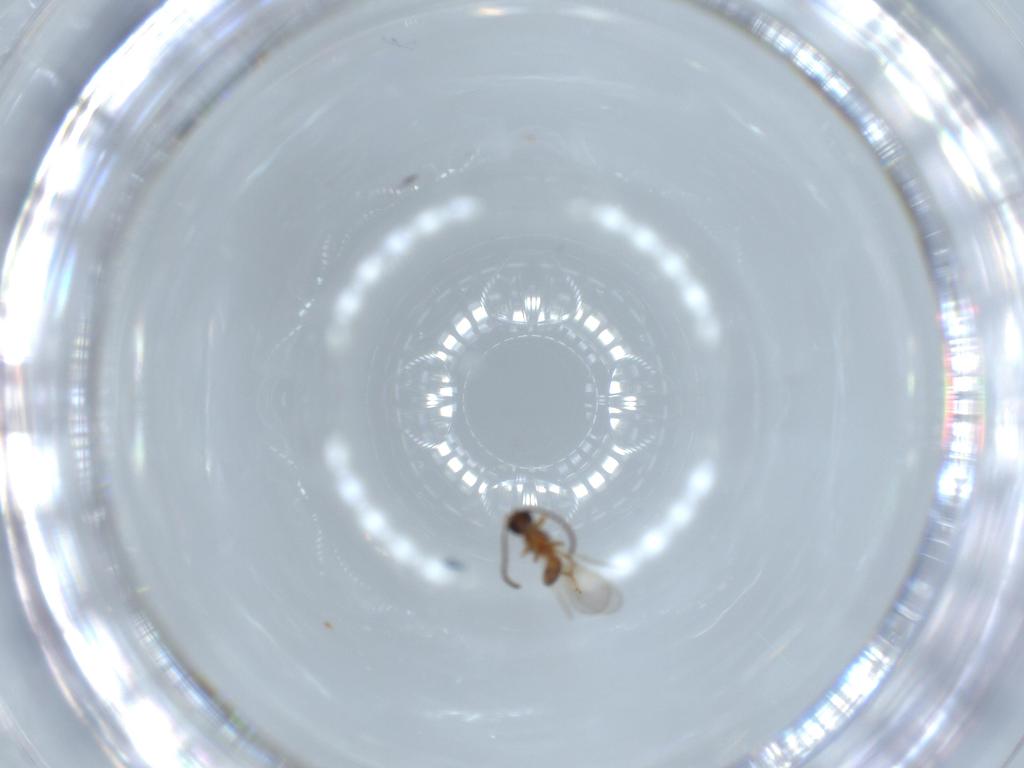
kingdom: Animalia
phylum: Arthropoda
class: Insecta
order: Hymenoptera
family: Diapriidae
